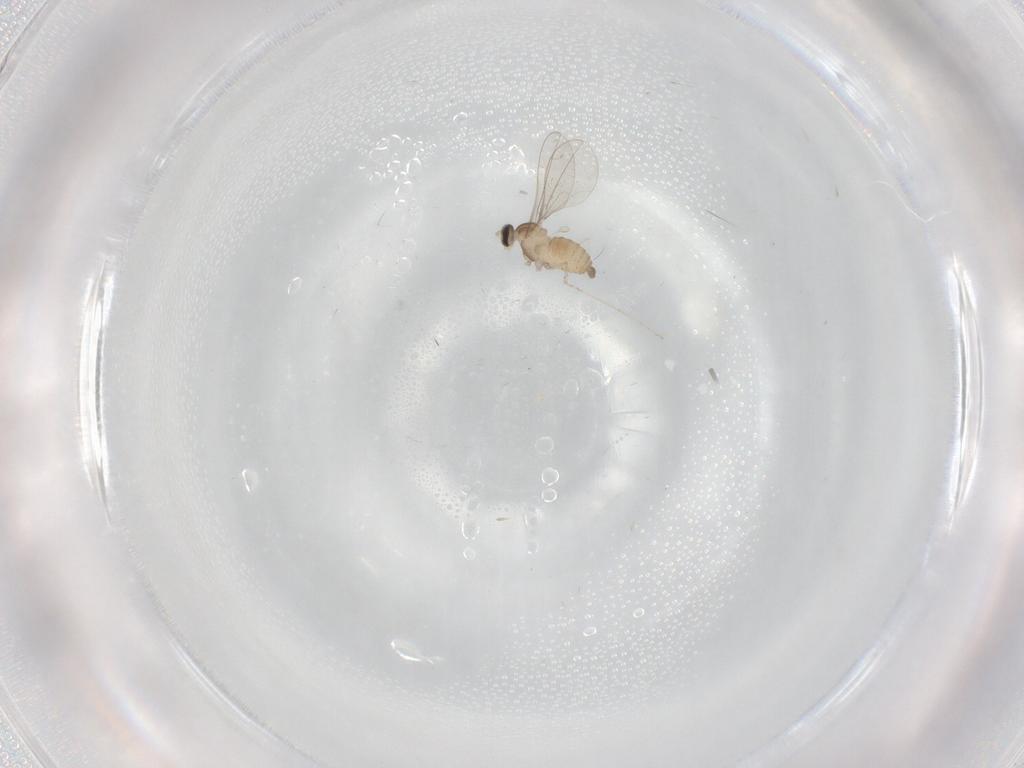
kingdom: Animalia
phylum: Arthropoda
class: Insecta
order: Diptera
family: Cecidomyiidae
